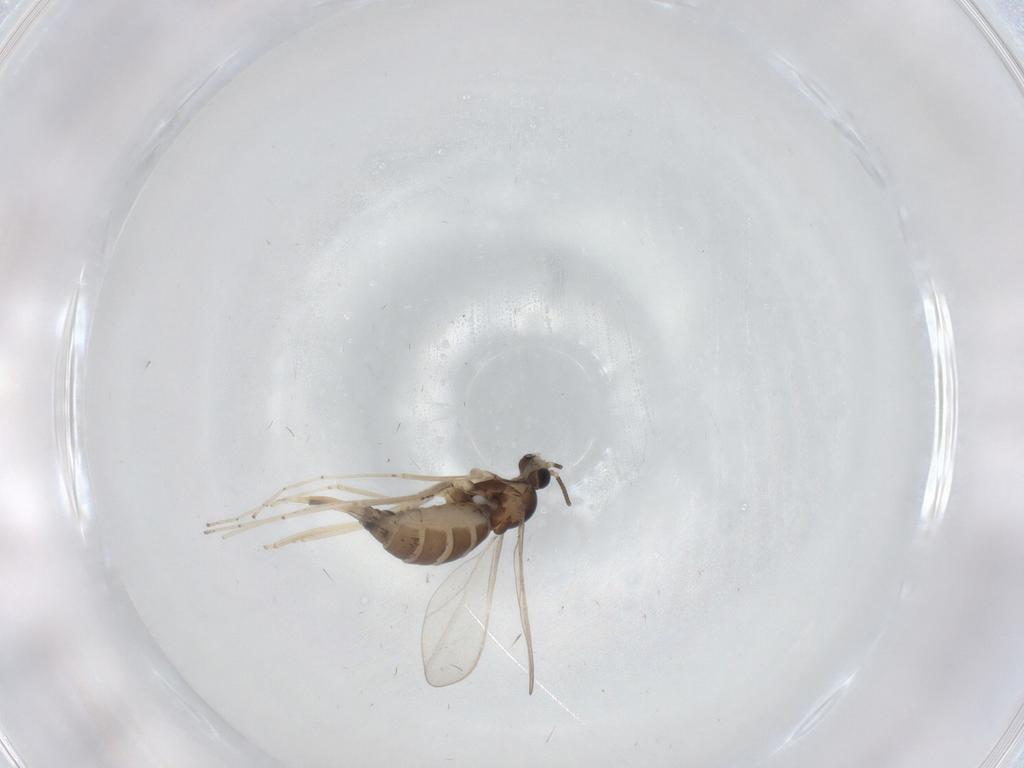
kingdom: Animalia
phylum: Arthropoda
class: Insecta
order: Diptera
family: Cecidomyiidae
